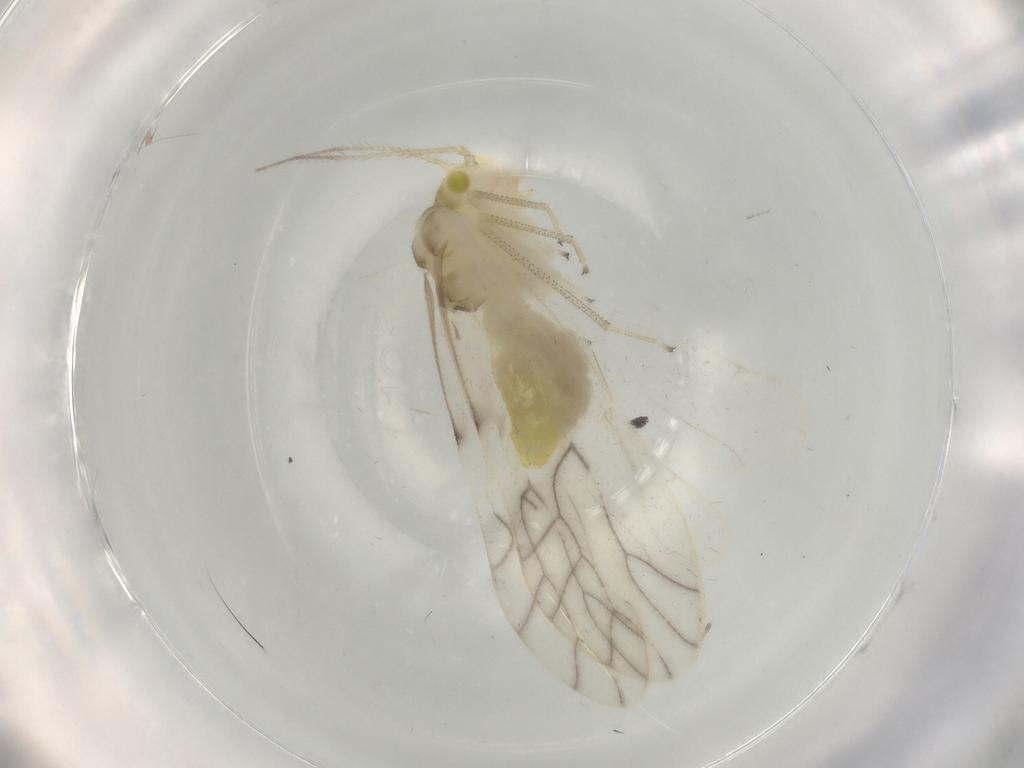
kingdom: Animalia
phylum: Arthropoda
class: Insecta
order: Psocodea
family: Caeciliusidae
